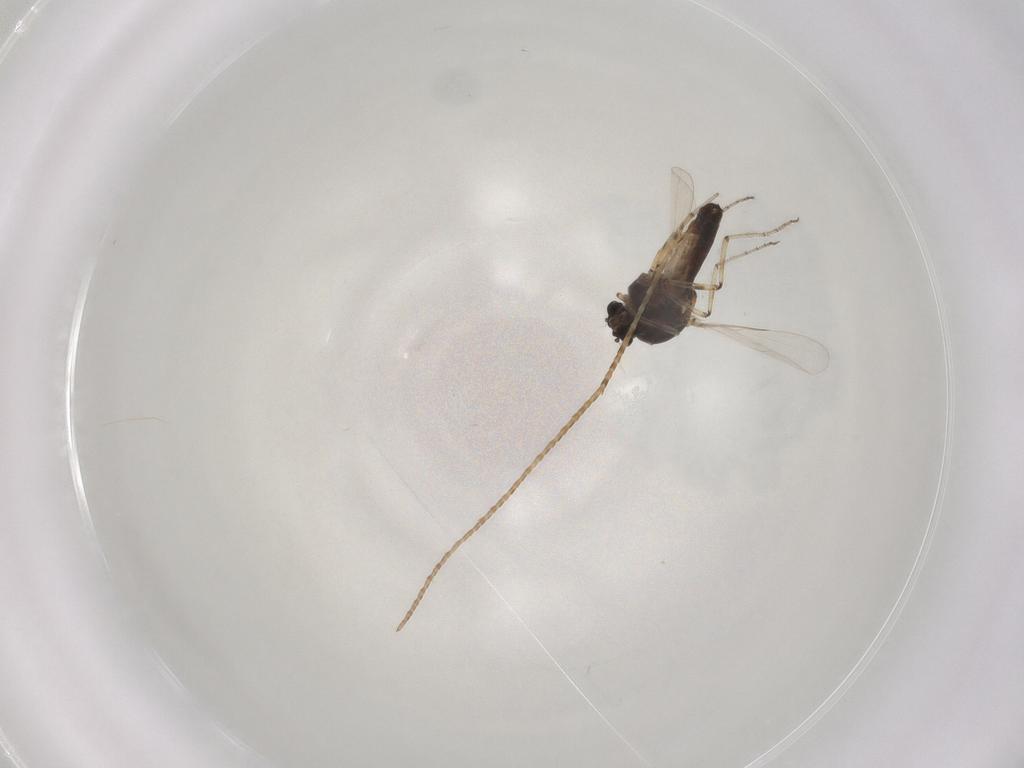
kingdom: Animalia
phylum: Arthropoda
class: Insecta
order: Diptera
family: Ceratopogonidae
